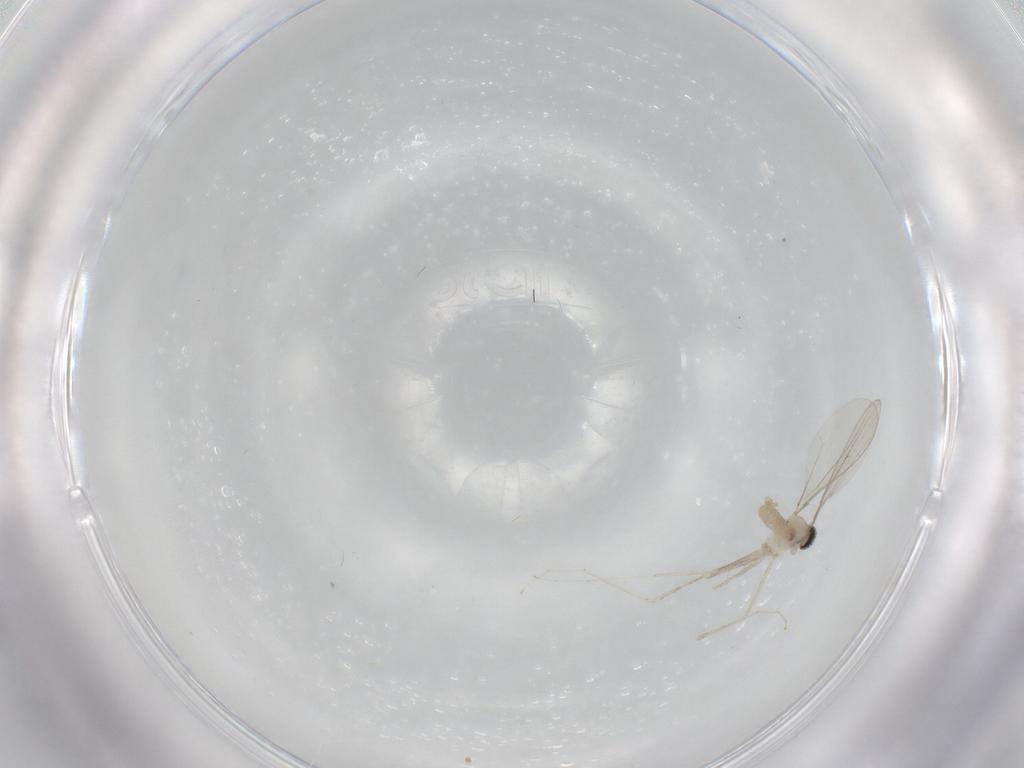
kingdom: Animalia
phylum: Arthropoda
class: Insecta
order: Diptera
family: Cecidomyiidae
